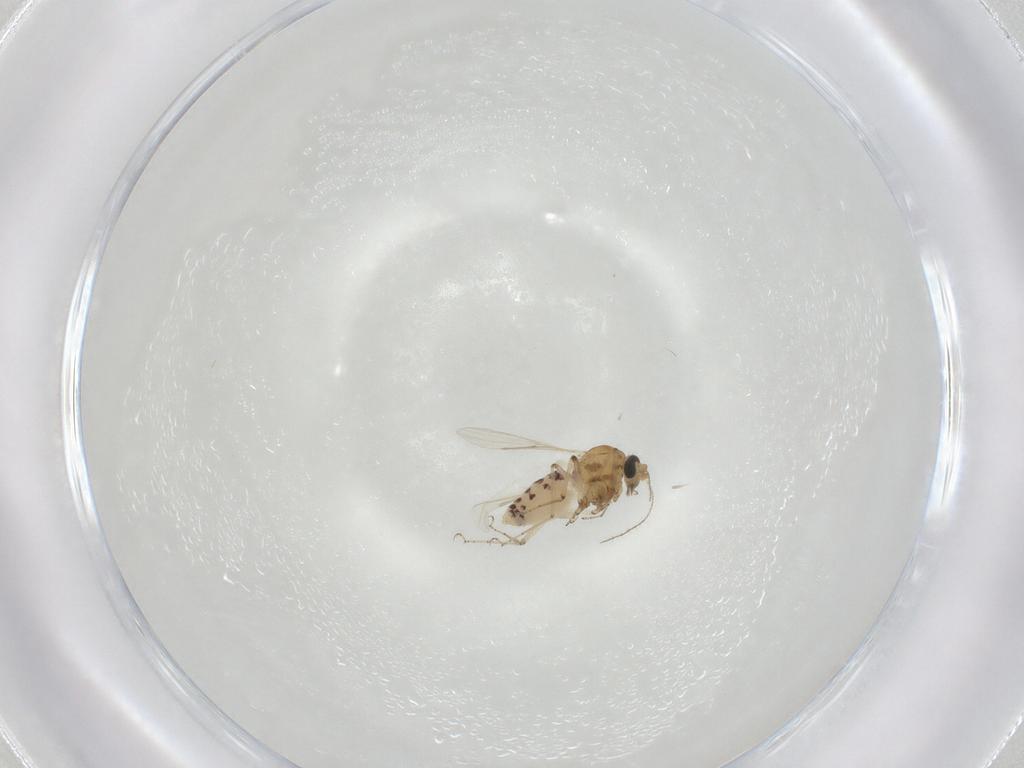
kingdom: Animalia
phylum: Arthropoda
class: Insecta
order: Diptera
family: Ceratopogonidae
